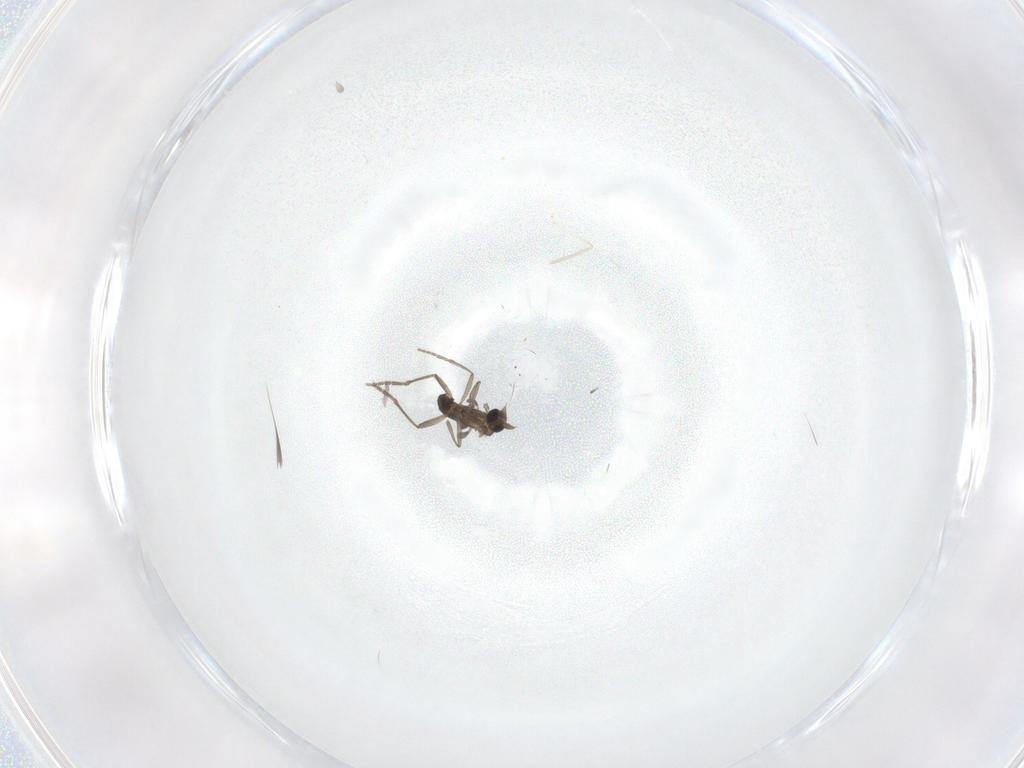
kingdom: Animalia
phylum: Arthropoda
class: Insecta
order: Diptera
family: Phoridae
